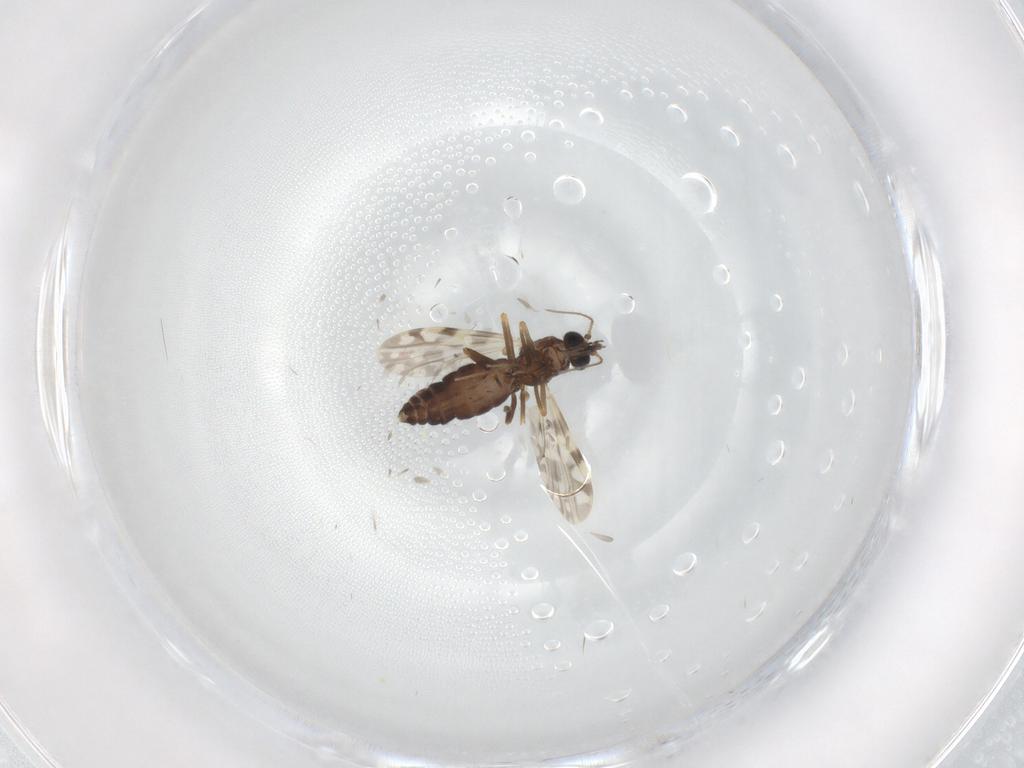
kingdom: Animalia
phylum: Arthropoda
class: Insecta
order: Diptera
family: Ceratopogonidae
